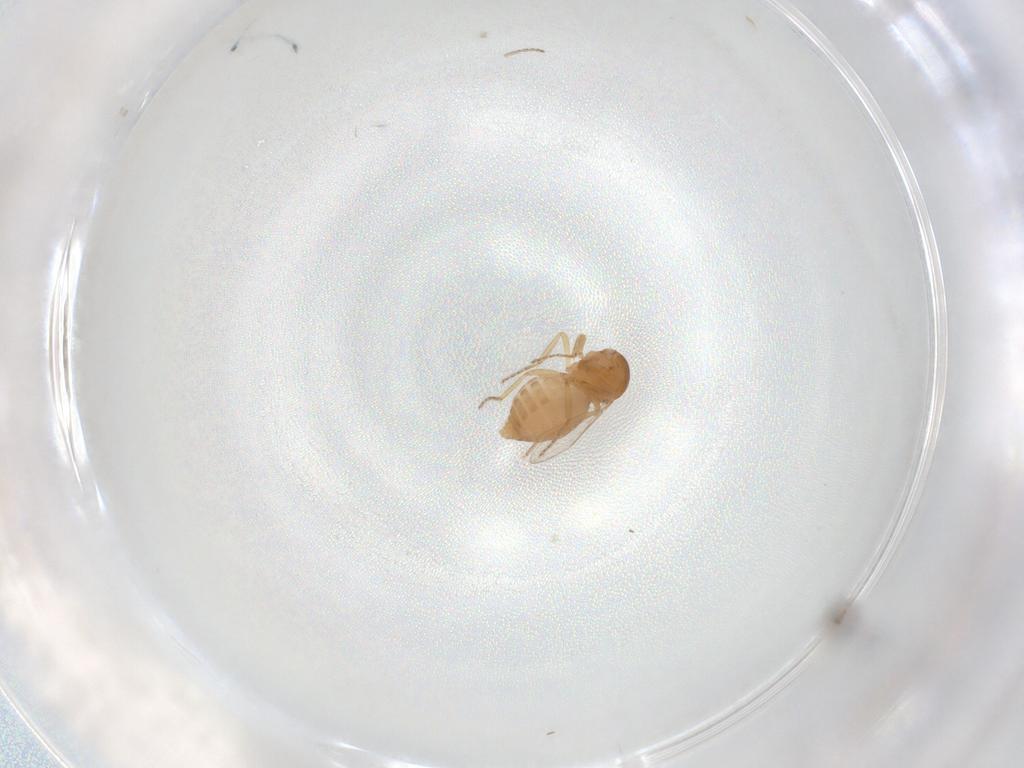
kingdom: Animalia
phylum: Arthropoda
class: Insecta
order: Diptera
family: Ceratopogonidae
